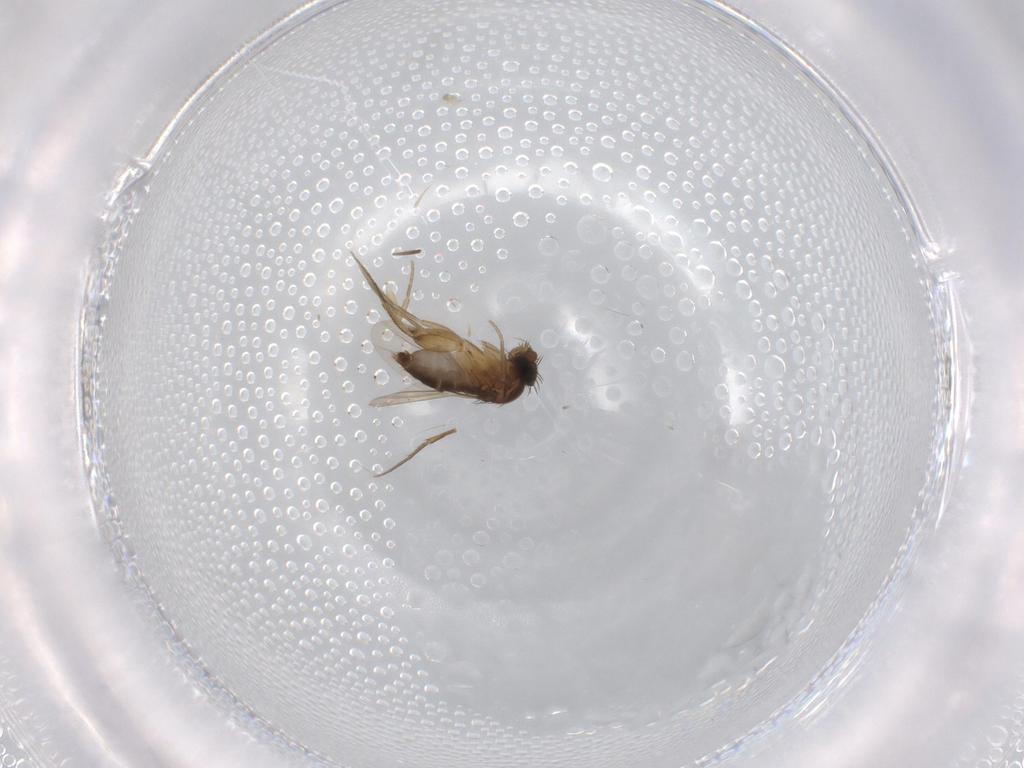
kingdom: Animalia
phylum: Arthropoda
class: Insecta
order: Diptera
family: Phoridae
